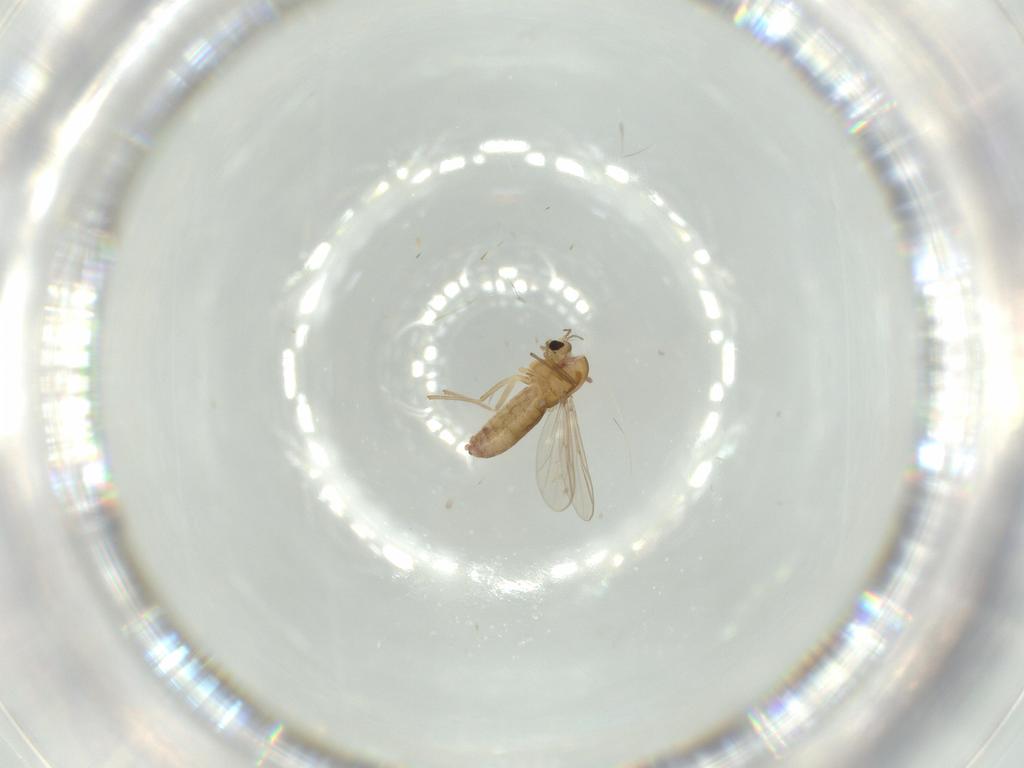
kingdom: Animalia
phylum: Arthropoda
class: Insecta
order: Diptera
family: Chironomidae
